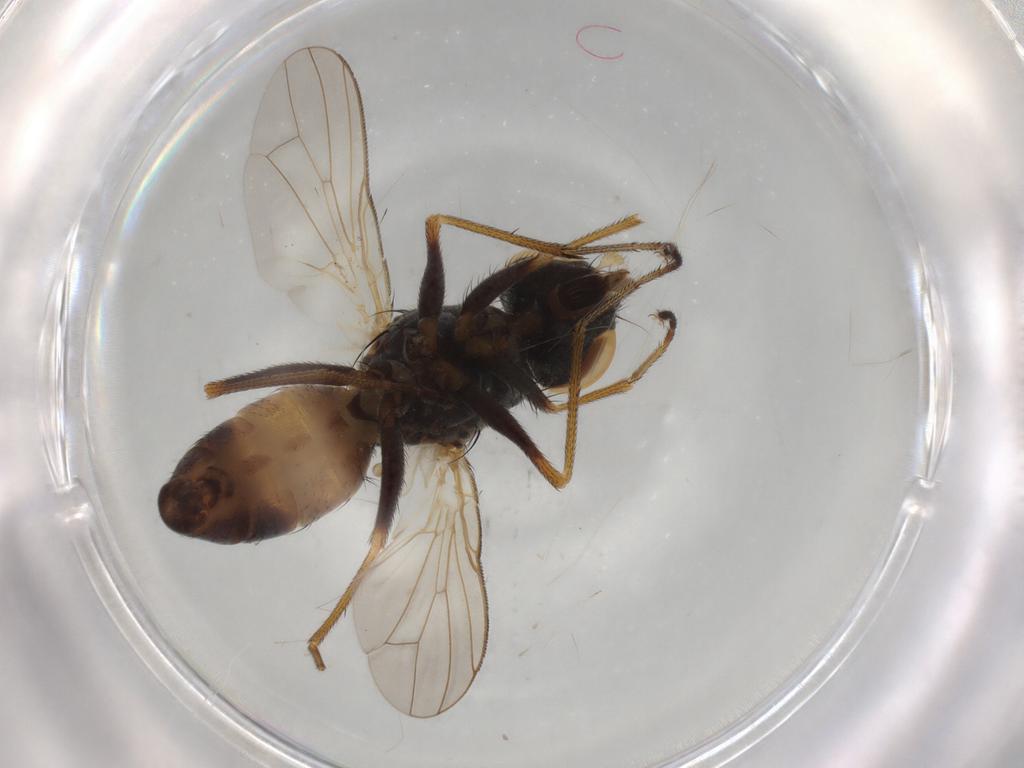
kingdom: Animalia
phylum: Arthropoda
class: Insecta
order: Diptera
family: Muscidae
